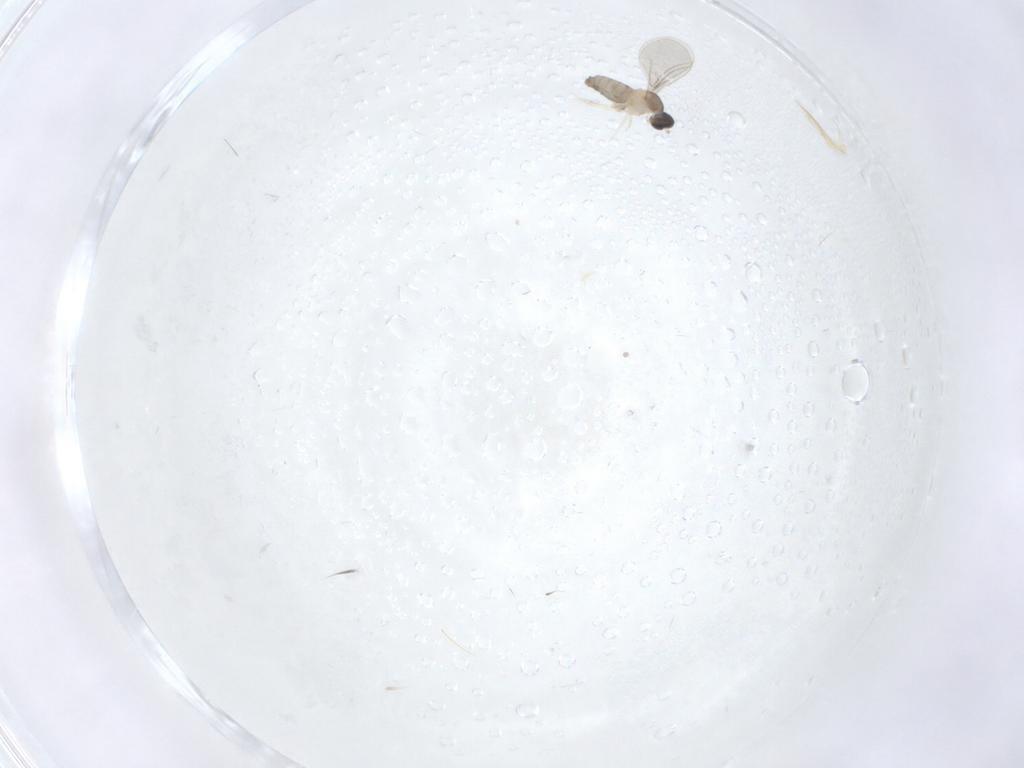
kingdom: Animalia
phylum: Arthropoda
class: Insecta
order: Diptera
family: Cecidomyiidae
